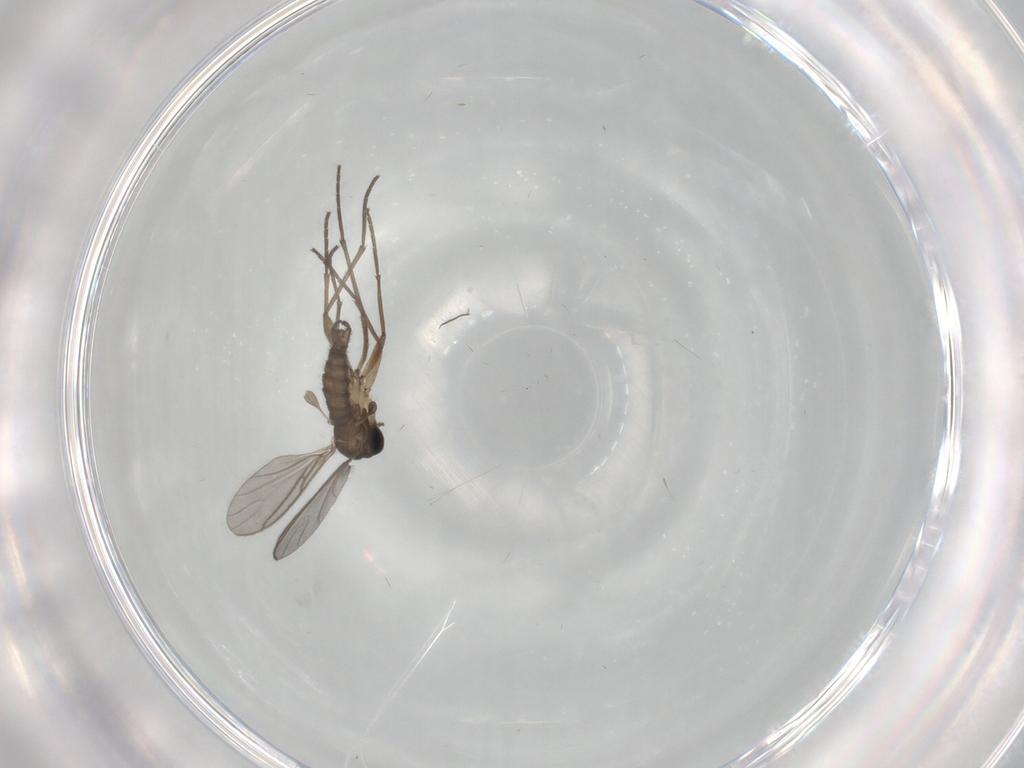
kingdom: Animalia
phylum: Arthropoda
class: Insecta
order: Diptera
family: Sciaridae
